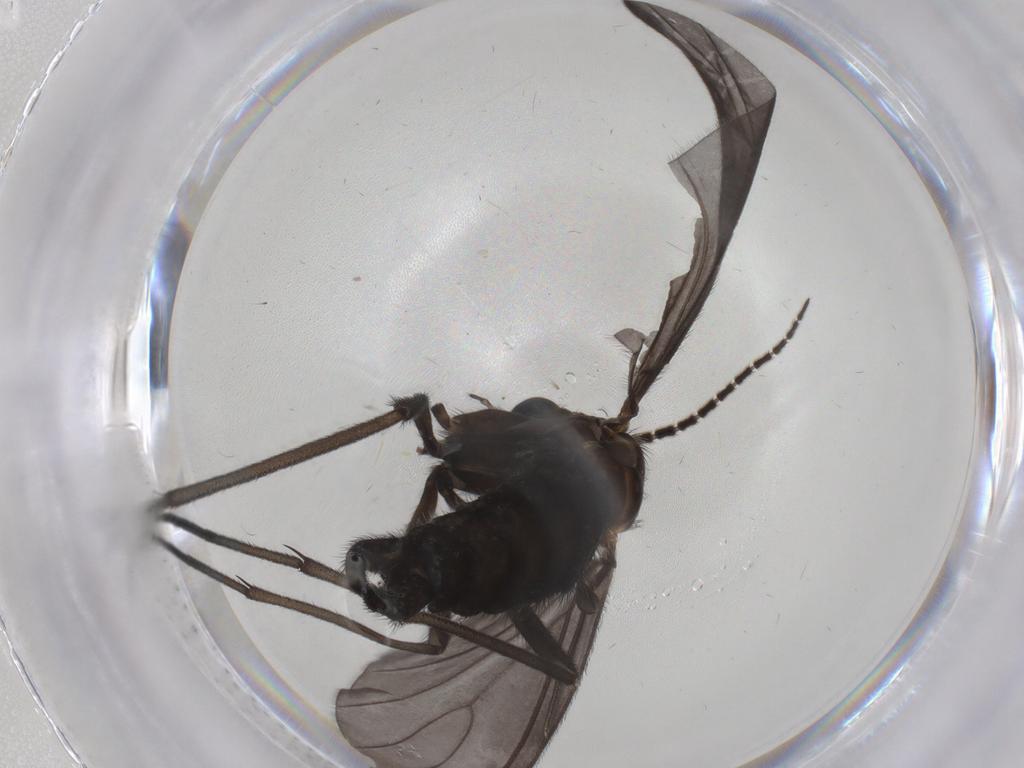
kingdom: Animalia
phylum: Arthropoda
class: Insecta
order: Diptera
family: Sciaridae
